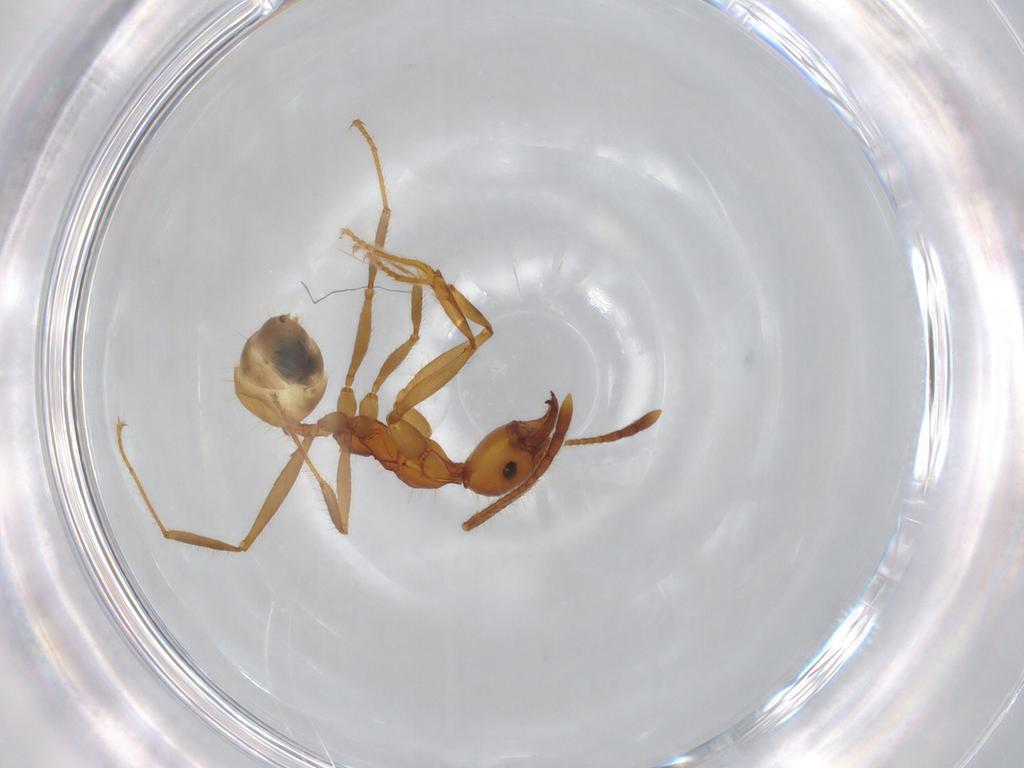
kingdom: Animalia
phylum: Arthropoda
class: Insecta
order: Hymenoptera
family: Formicidae
